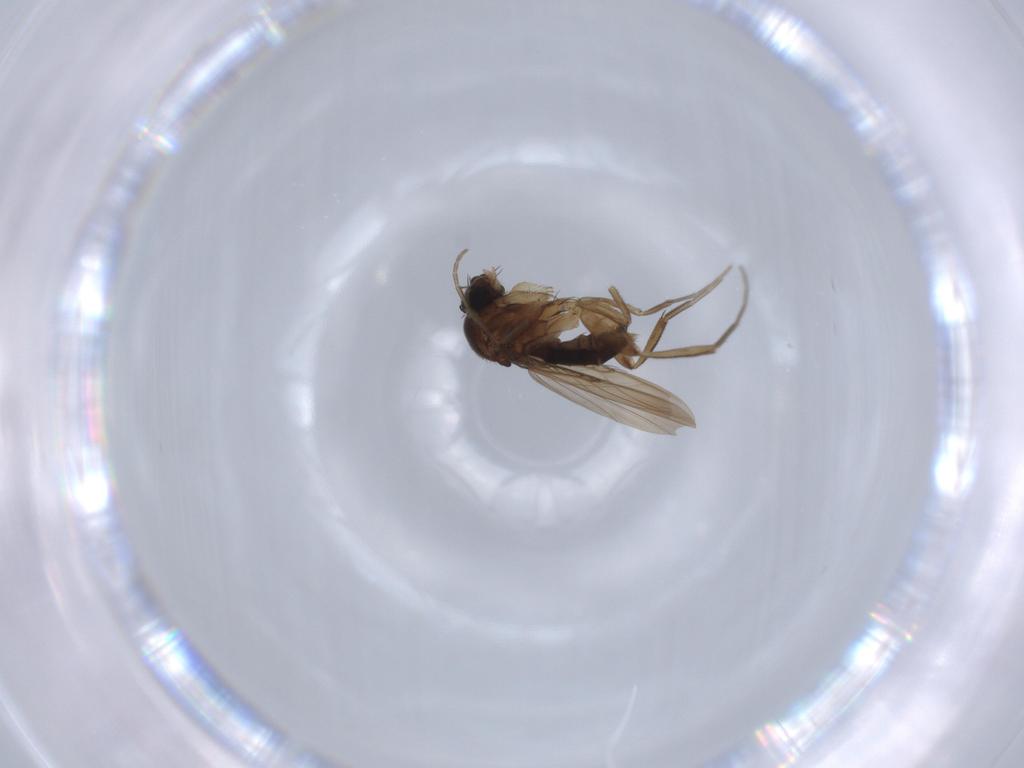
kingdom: Animalia
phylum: Arthropoda
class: Insecta
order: Diptera
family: Phoridae
